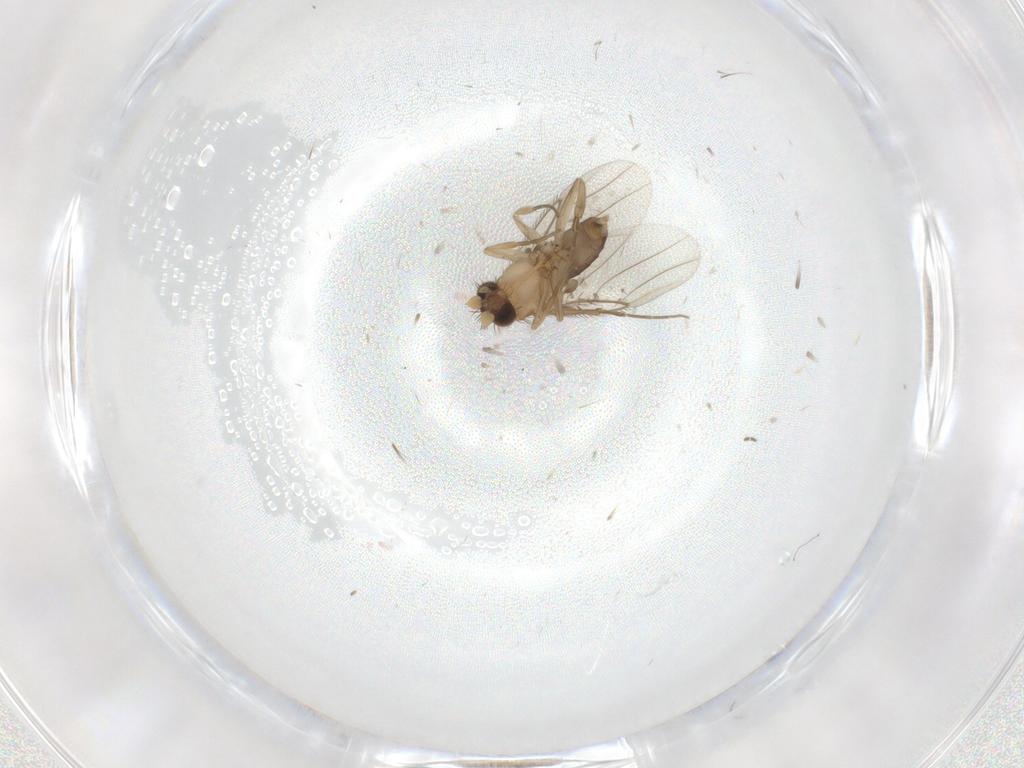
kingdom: Animalia
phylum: Arthropoda
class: Insecta
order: Diptera
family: Phoridae
